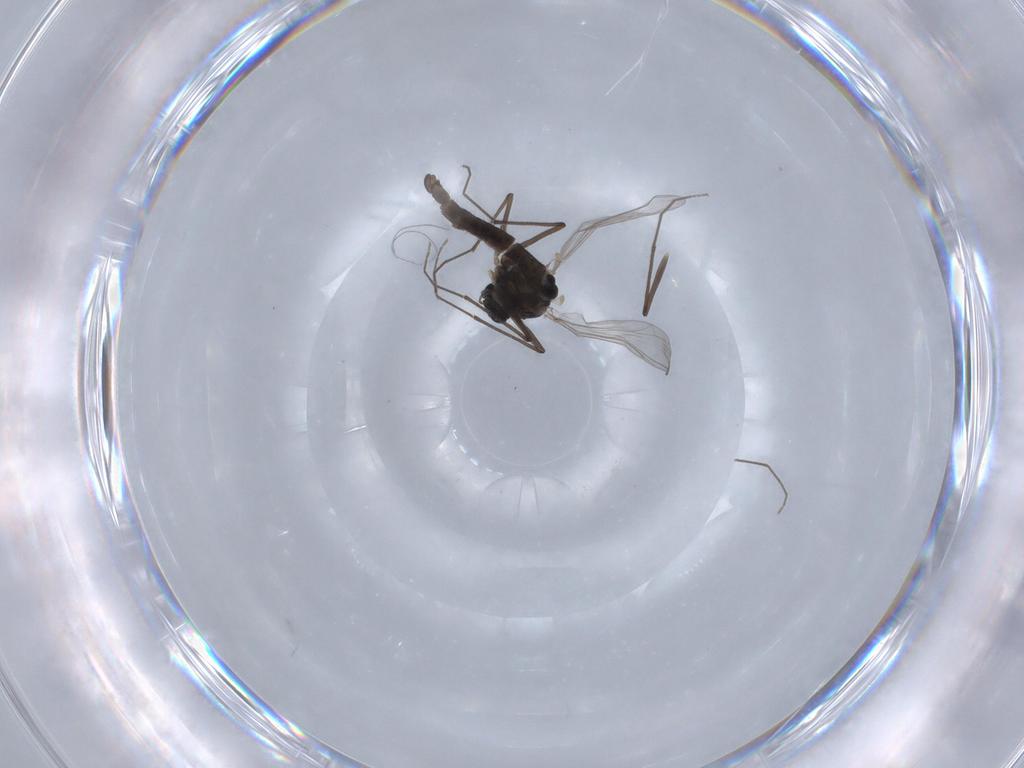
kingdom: Animalia
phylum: Arthropoda
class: Insecta
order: Diptera
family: Chironomidae
